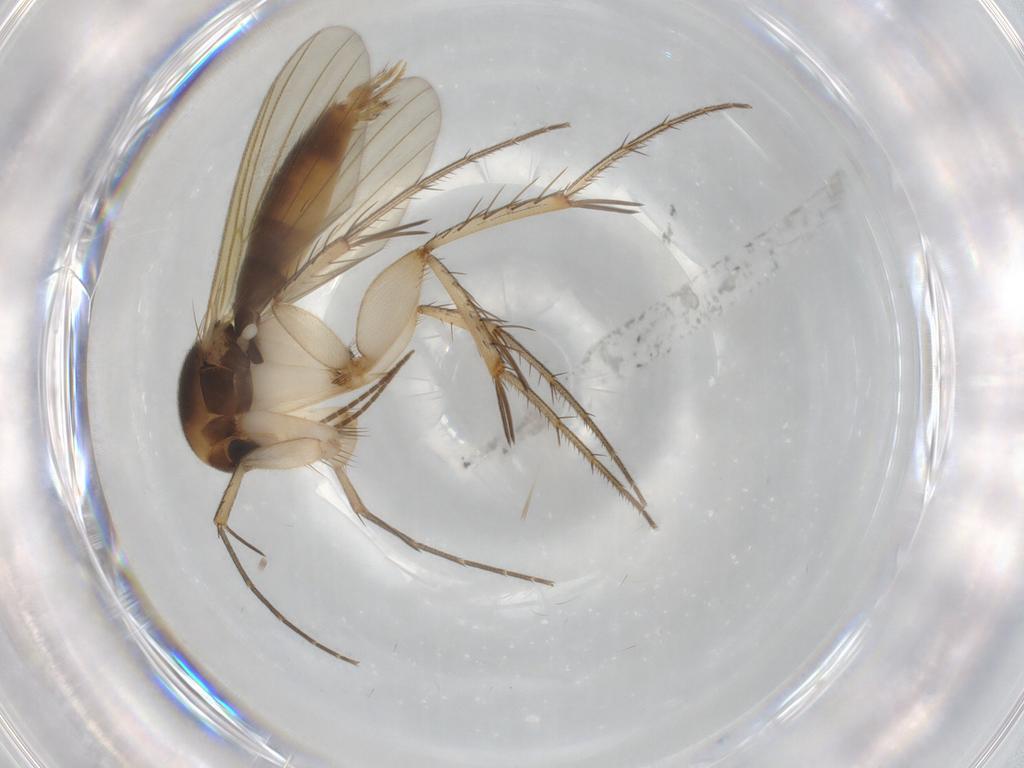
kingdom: Animalia
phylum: Arthropoda
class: Insecta
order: Diptera
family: Mycetophilidae
